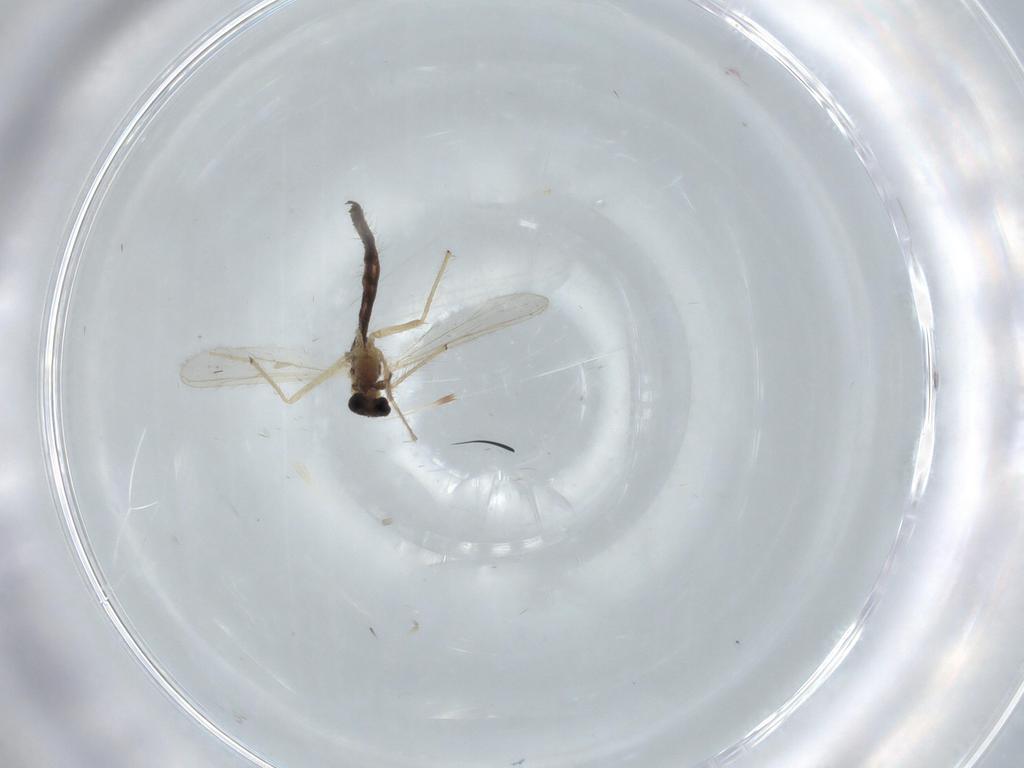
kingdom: Animalia
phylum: Arthropoda
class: Insecta
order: Diptera
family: Chironomidae
